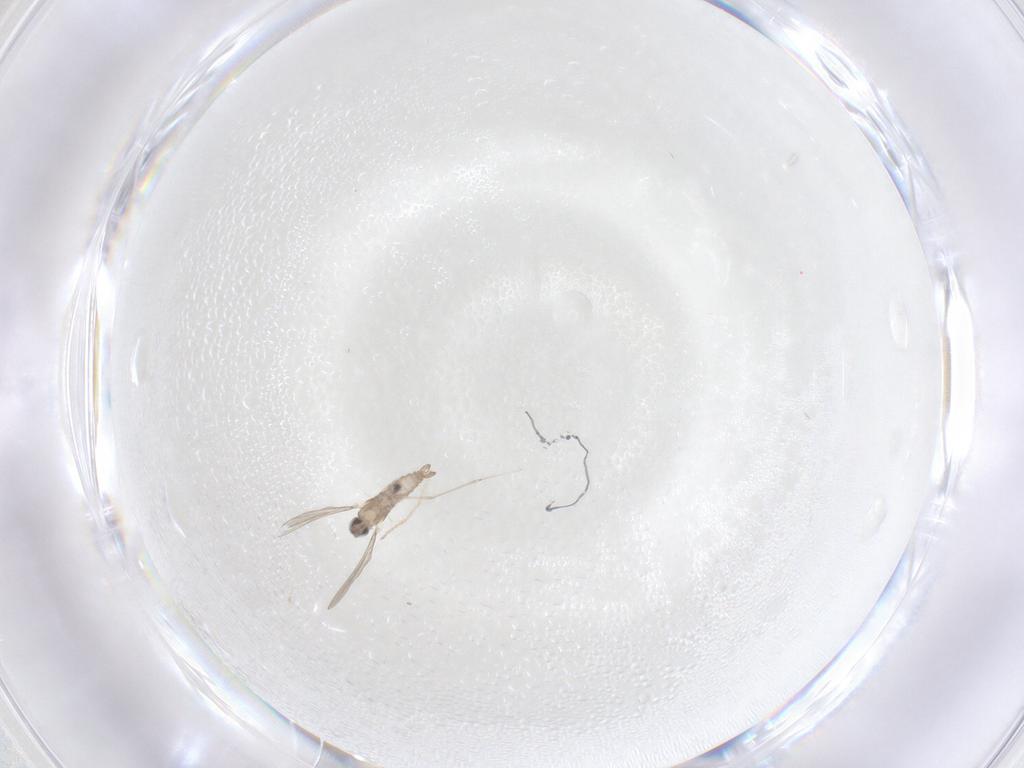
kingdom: Animalia
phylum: Arthropoda
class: Insecta
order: Diptera
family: Cecidomyiidae
